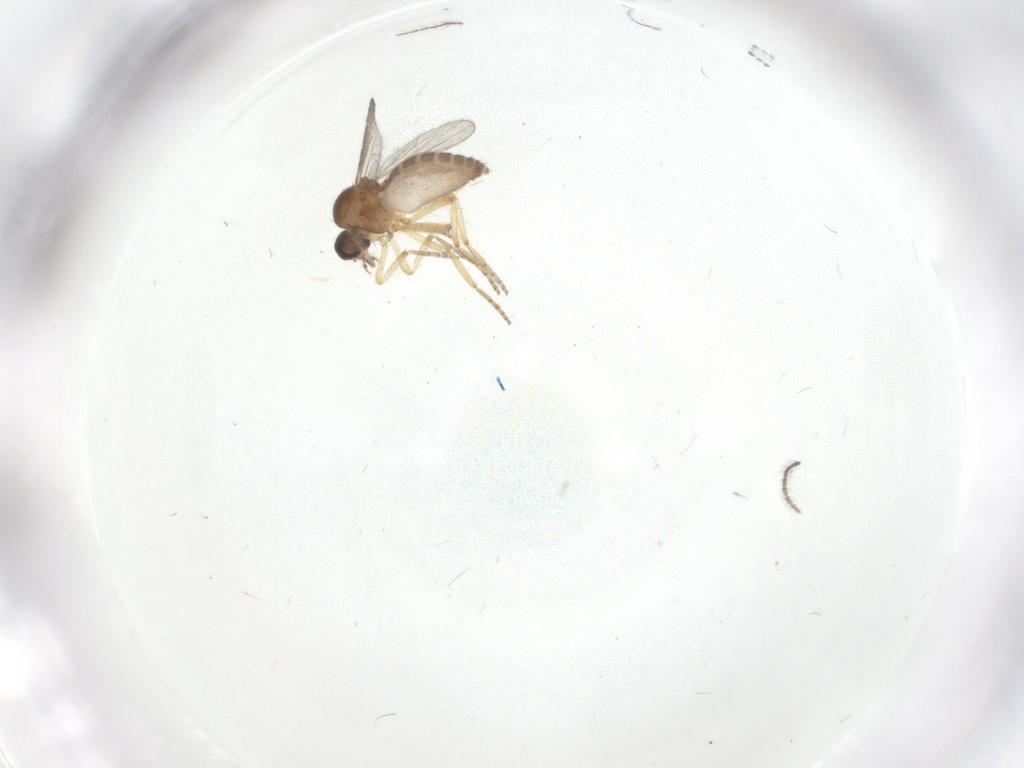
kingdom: Animalia
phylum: Arthropoda
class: Insecta
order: Diptera
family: Ceratopogonidae
